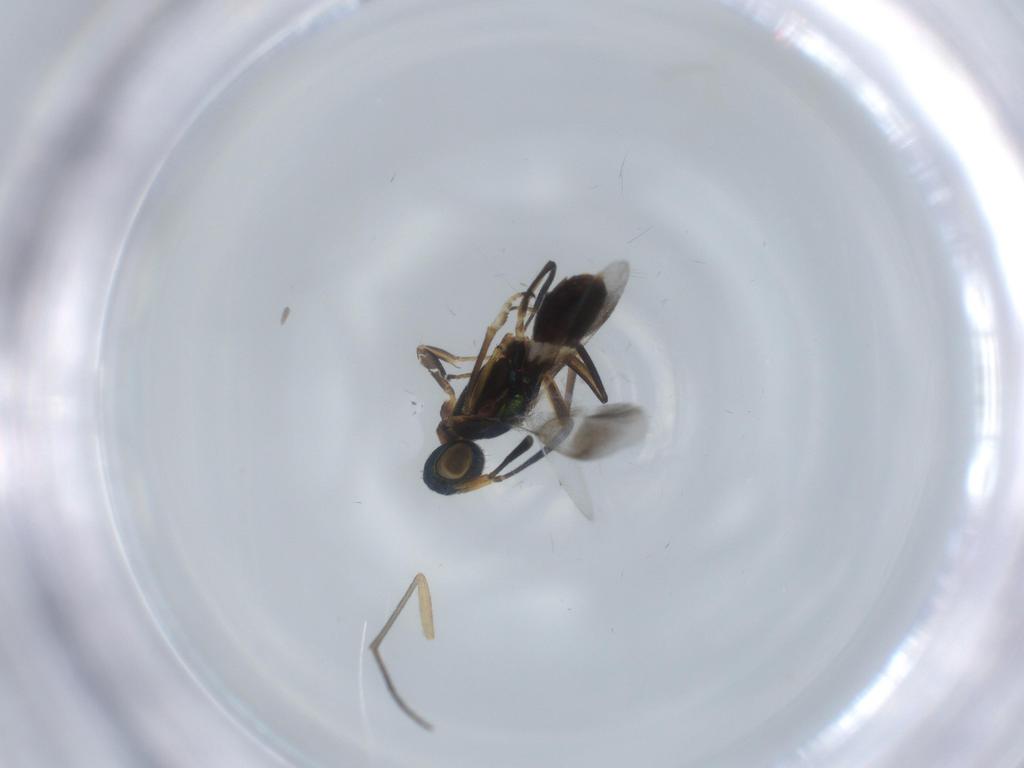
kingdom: Animalia
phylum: Arthropoda
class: Insecta
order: Hymenoptera
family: Eupelmidae
